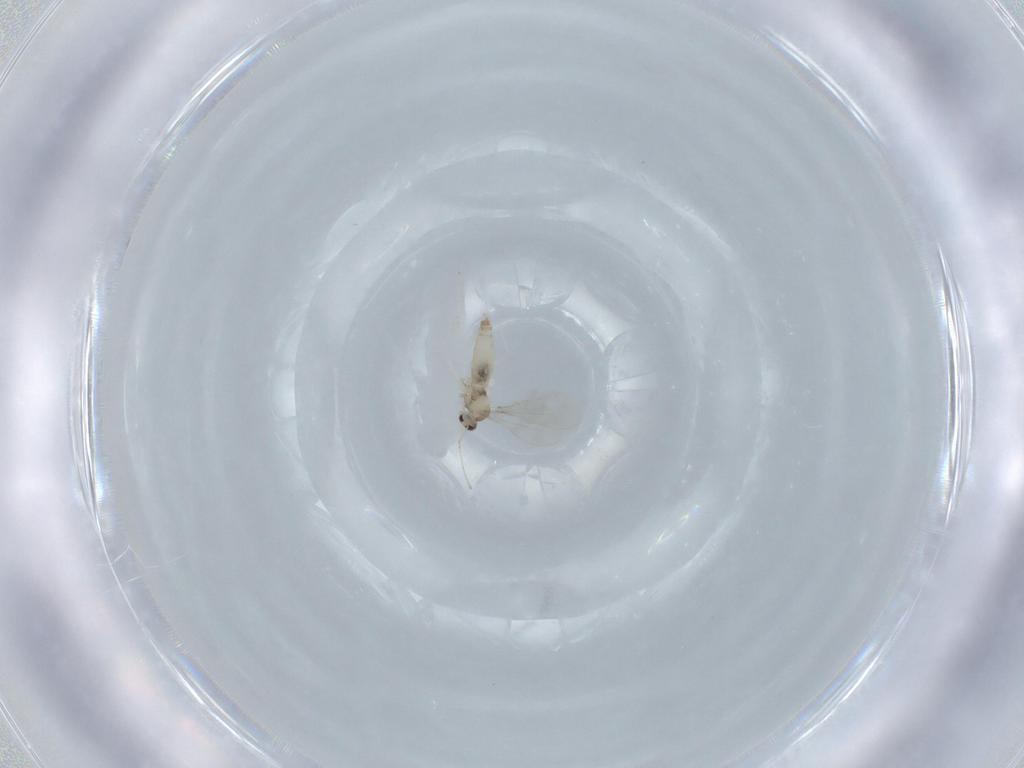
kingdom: Animalia
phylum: Arthropoda
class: Insecta
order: Diptera
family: Cecidomyiidae
